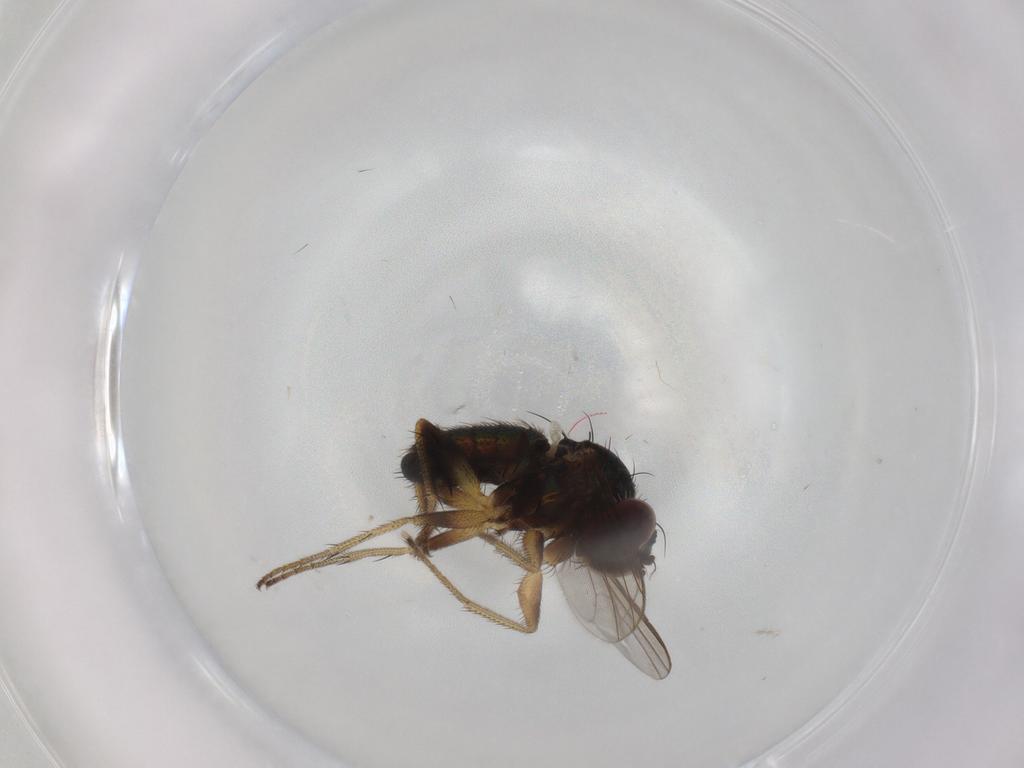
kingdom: Animalia
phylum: Arthropoda
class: Insecta
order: Diptera
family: Dolichopodidae
